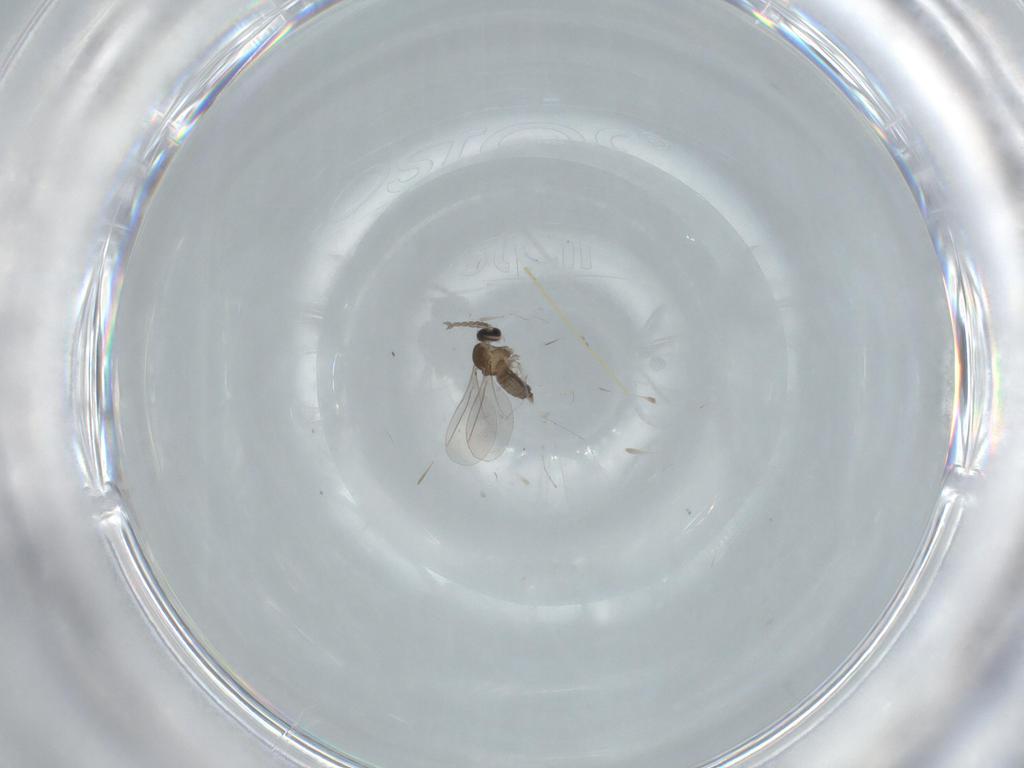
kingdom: Animalia
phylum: Arthropoda
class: Insecta
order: Diptera
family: Cecidomyiidae
